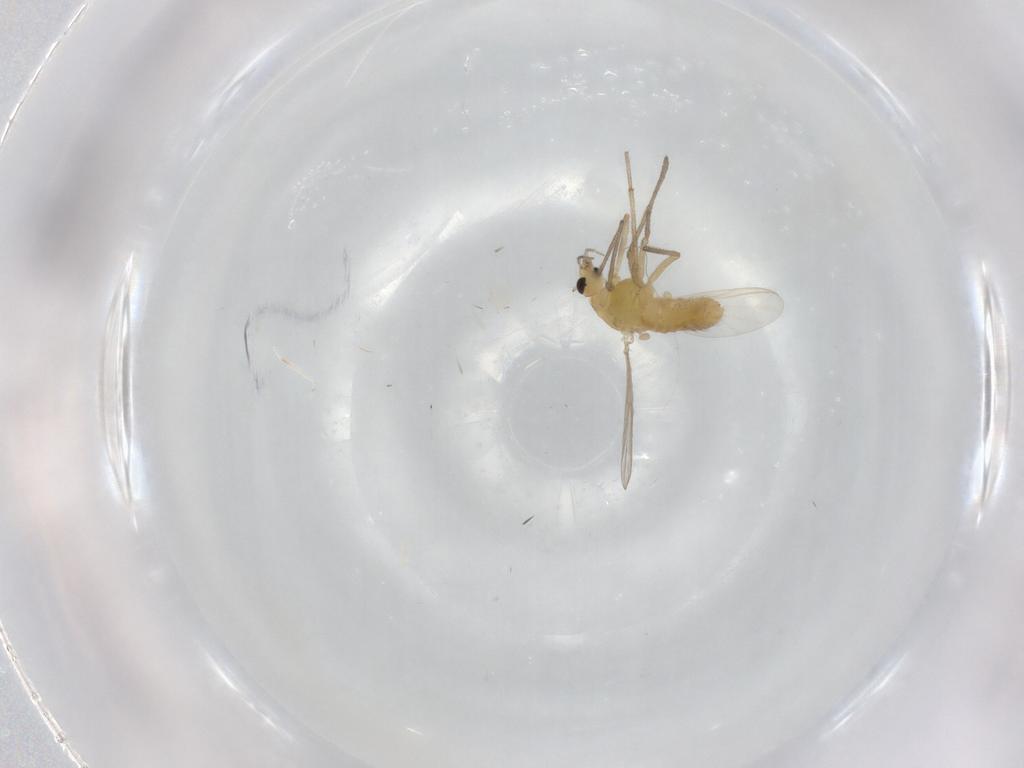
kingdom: Animalia
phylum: Arthropoda
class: Insecta
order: Diptera
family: Chironomidae
